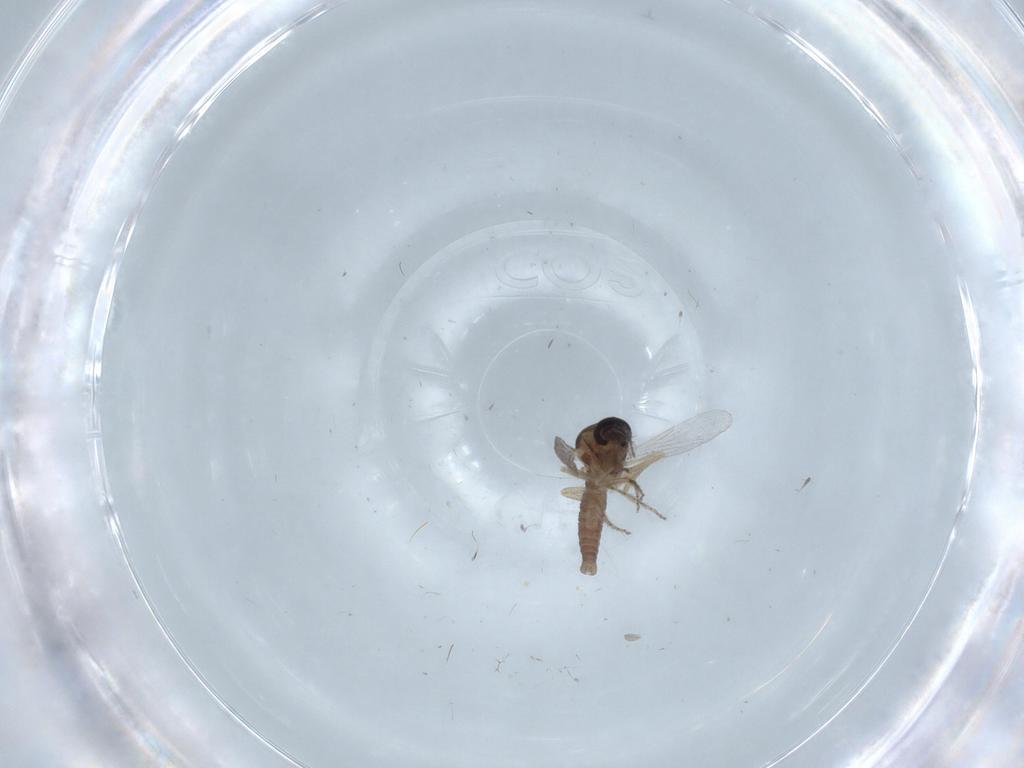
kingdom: Animalia
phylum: Arthropoda
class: Insecta
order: Diptera
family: Ceratopogonidae
